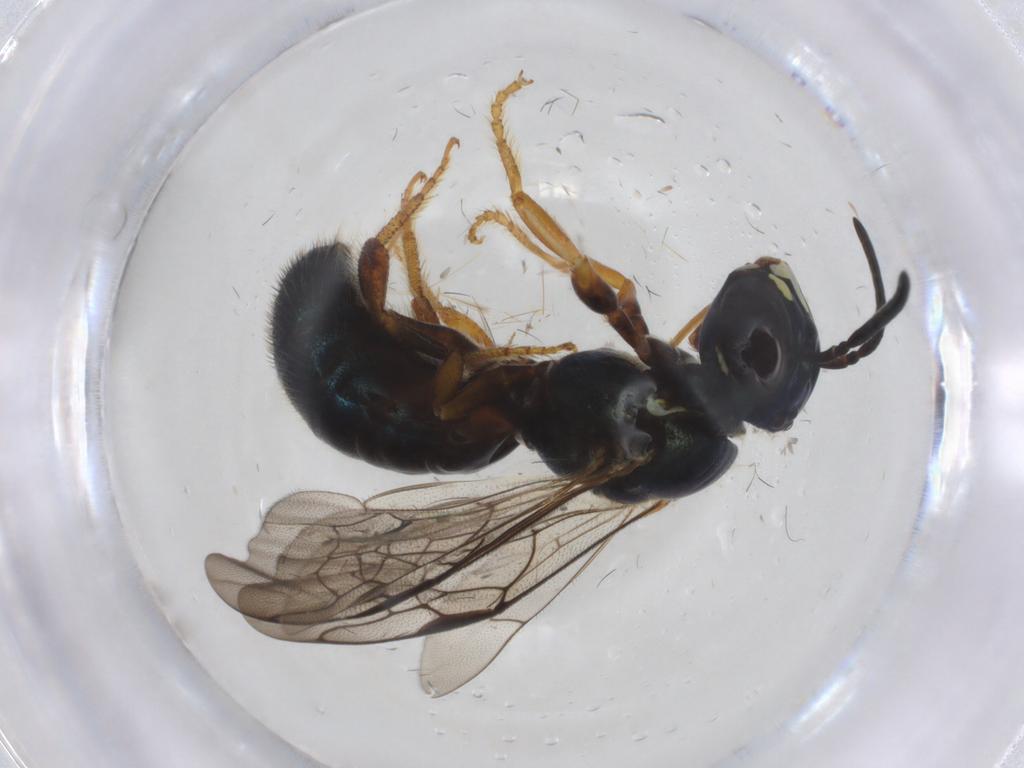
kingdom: Animalia
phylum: Arthropoda
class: Insecta
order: Hymenoptera
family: Apidae
